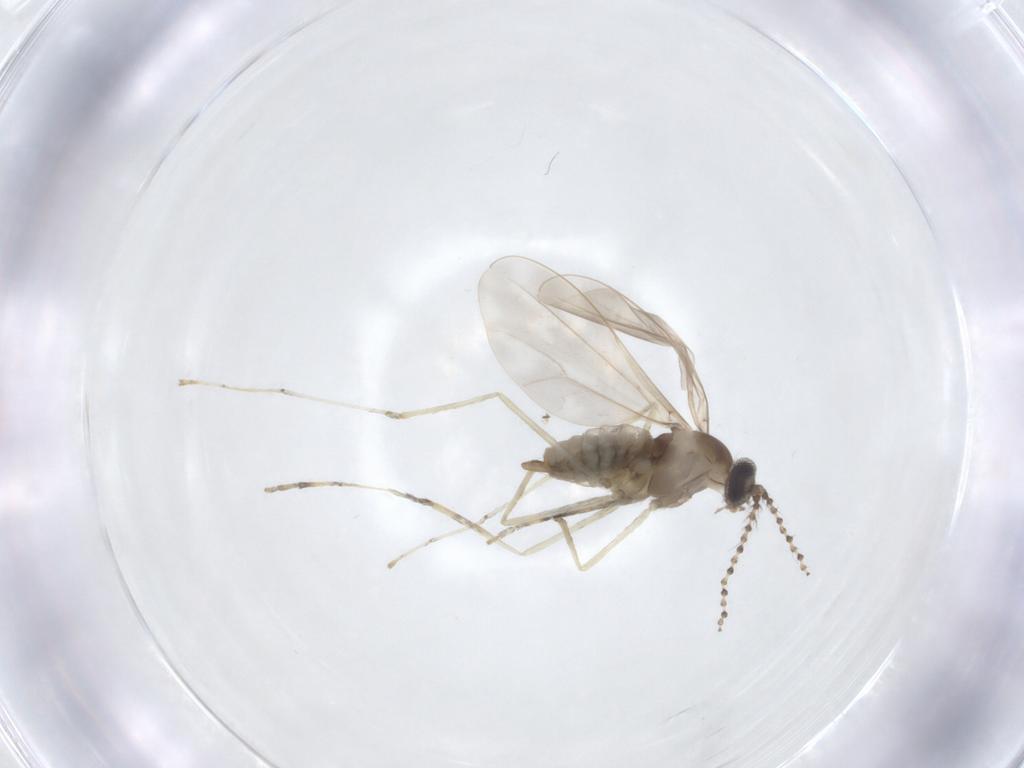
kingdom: Animalia
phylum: Arthropoda
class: Insecta
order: Diptera
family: Cecidomyiidae
